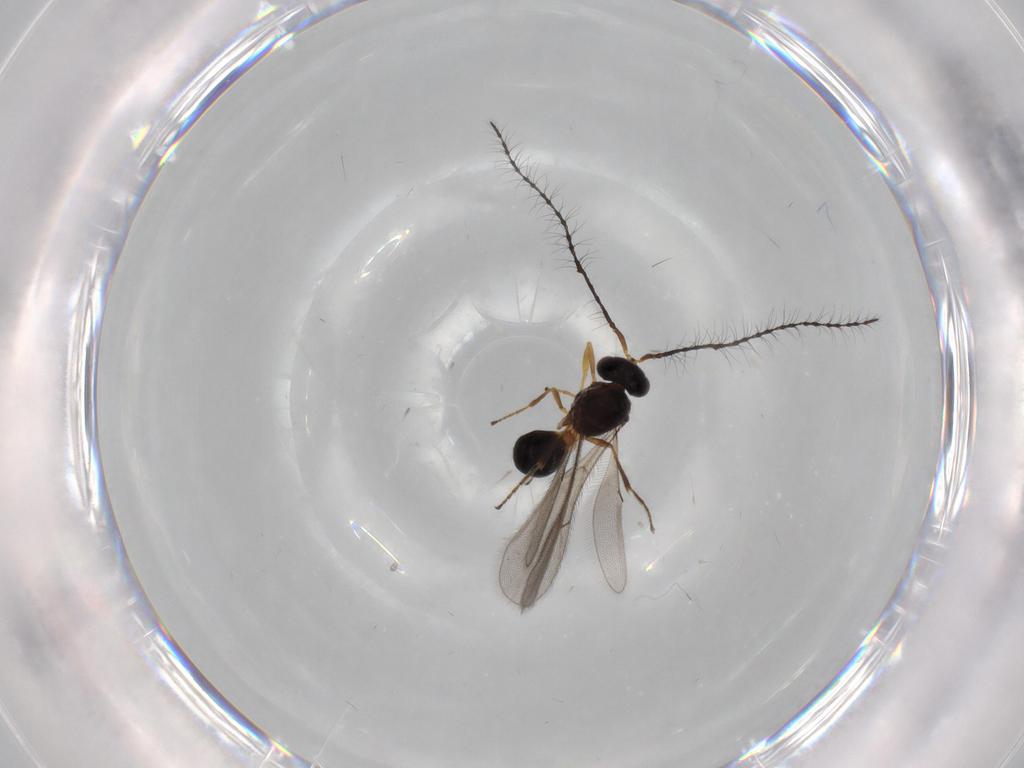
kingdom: Animalia
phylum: Arthropoda
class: Insecta
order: Hymenoptera
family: Scelionidae
